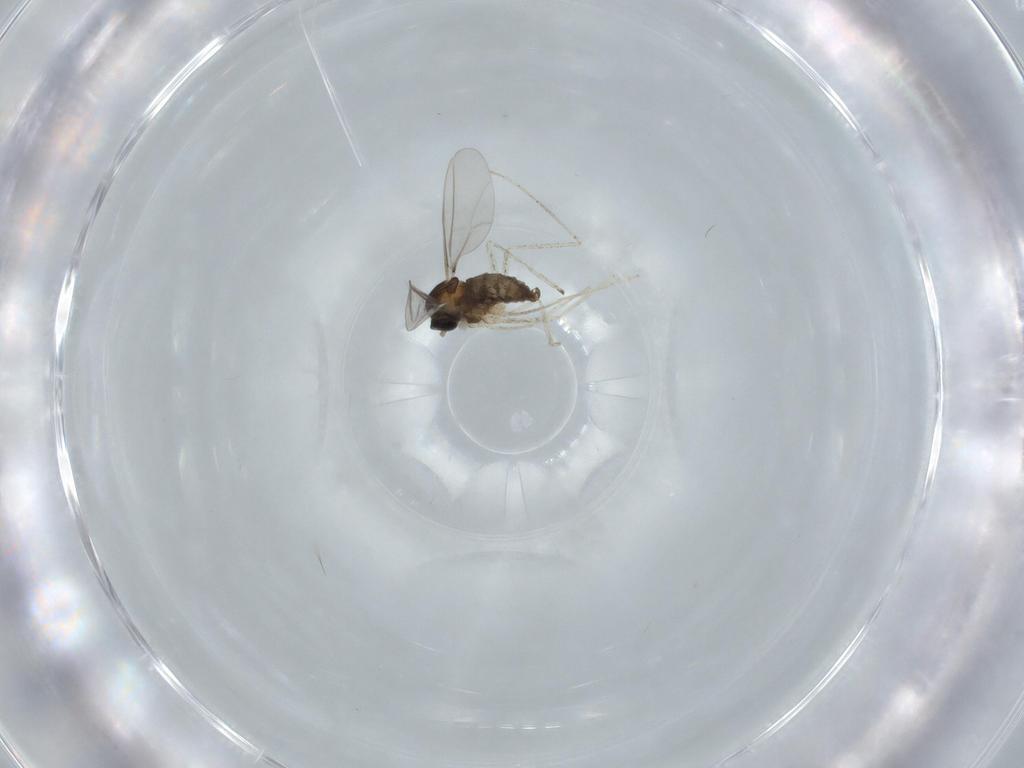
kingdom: Animalia
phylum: Arthropoda
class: Insecta
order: Diptera
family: Cecidomyiidae
